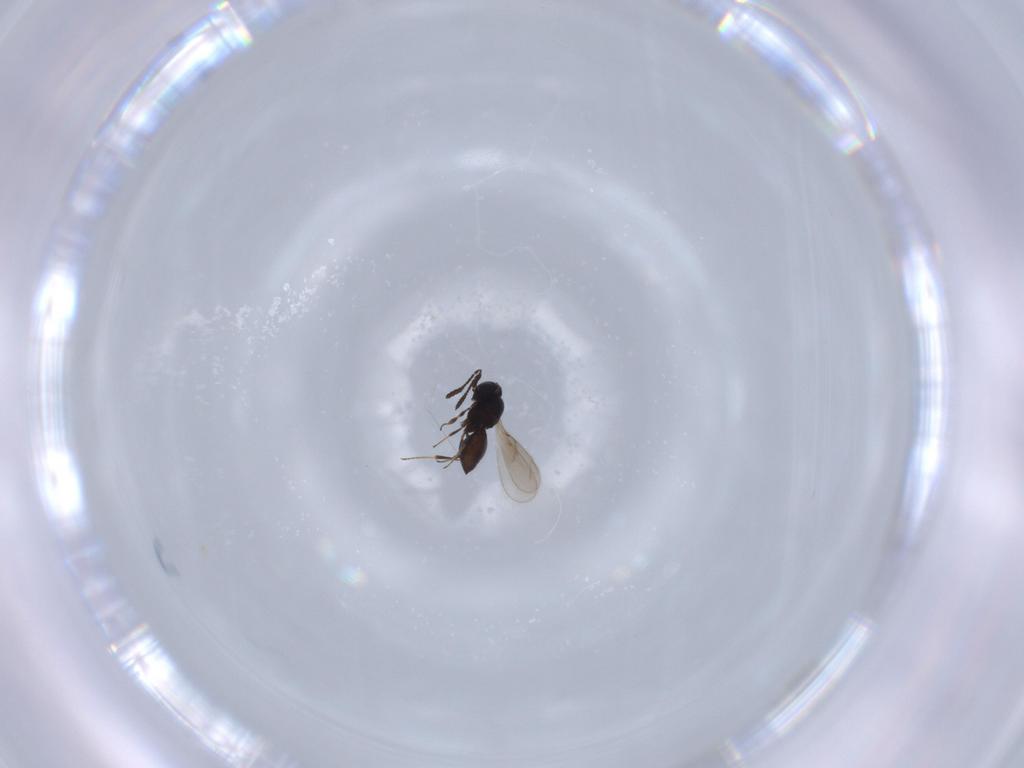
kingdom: Animalia
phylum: Arthropoda
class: Insecta
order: Hymenoptera
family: Scelionidae
